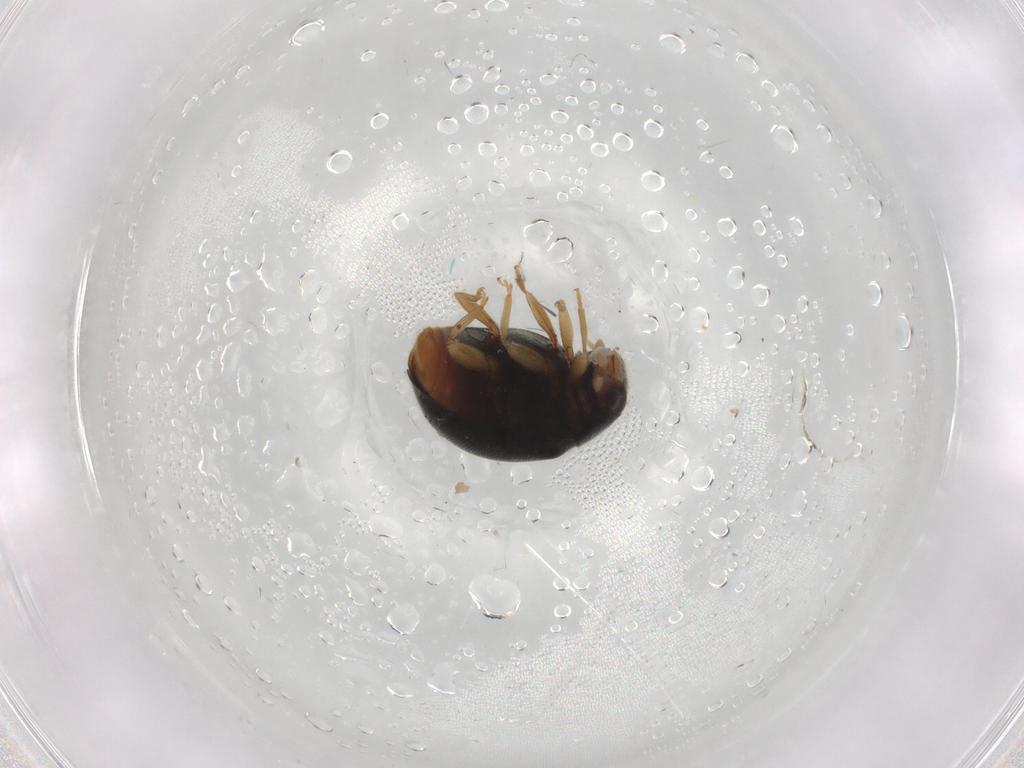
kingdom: Animalia
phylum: Arthropoda
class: Insecta
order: Coleoptera
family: Coccinellidae
